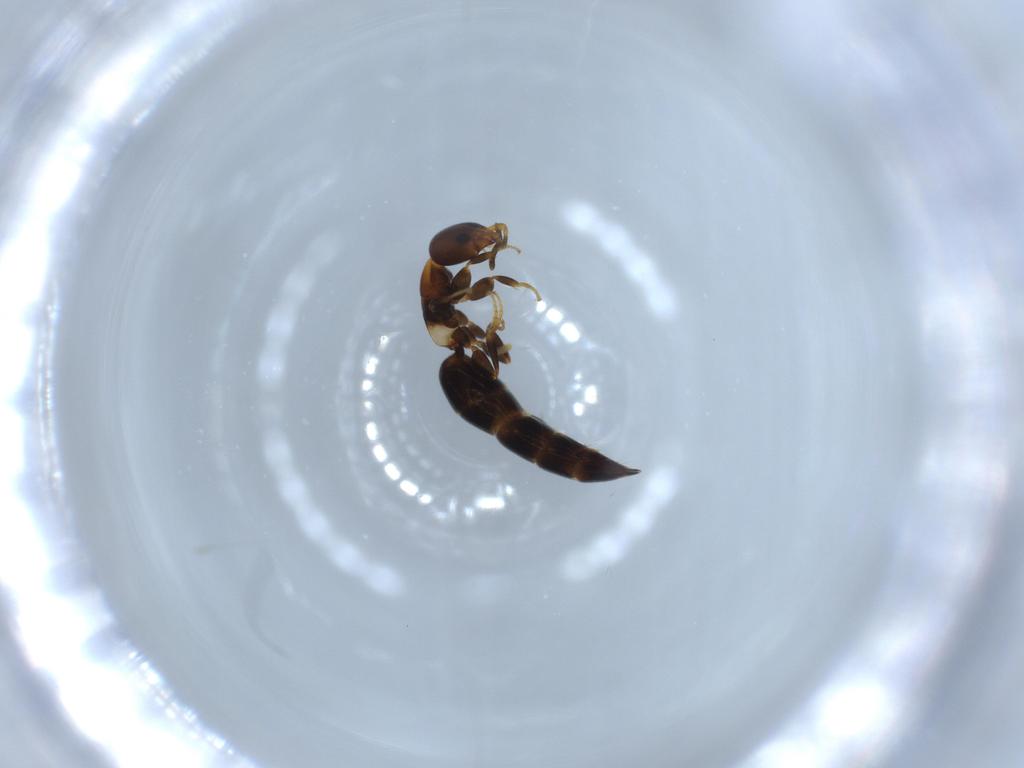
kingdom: Animalia
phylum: Arthropoda
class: Insecta
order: Hymenoptera
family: Bethylidae
